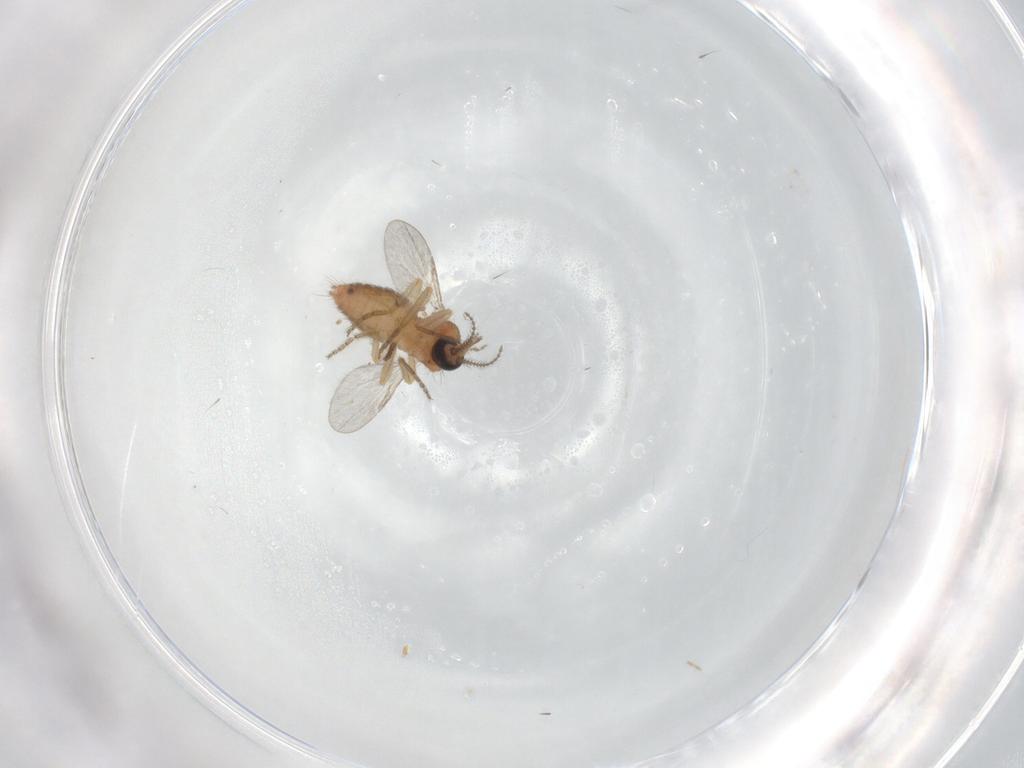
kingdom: Animalia
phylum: Arthropoda
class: Insecta
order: Diptera
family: Ceratopogonidae
